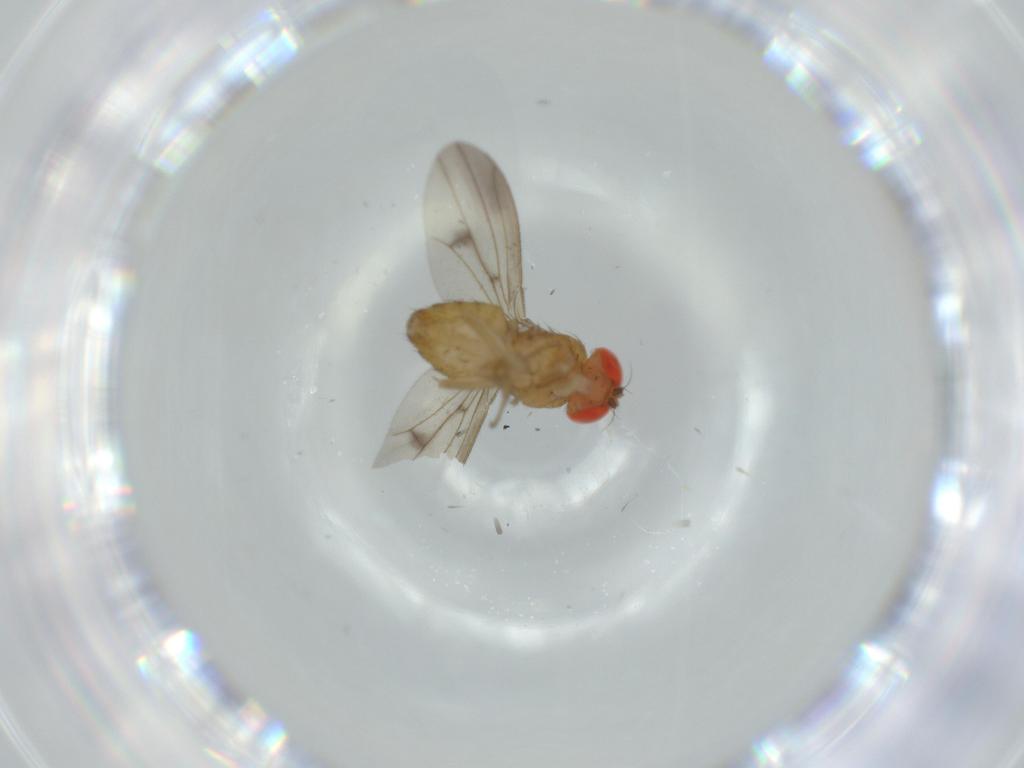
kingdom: Animalia
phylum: Arthropoda
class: Insecta
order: Diptera
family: Drosophilidae
